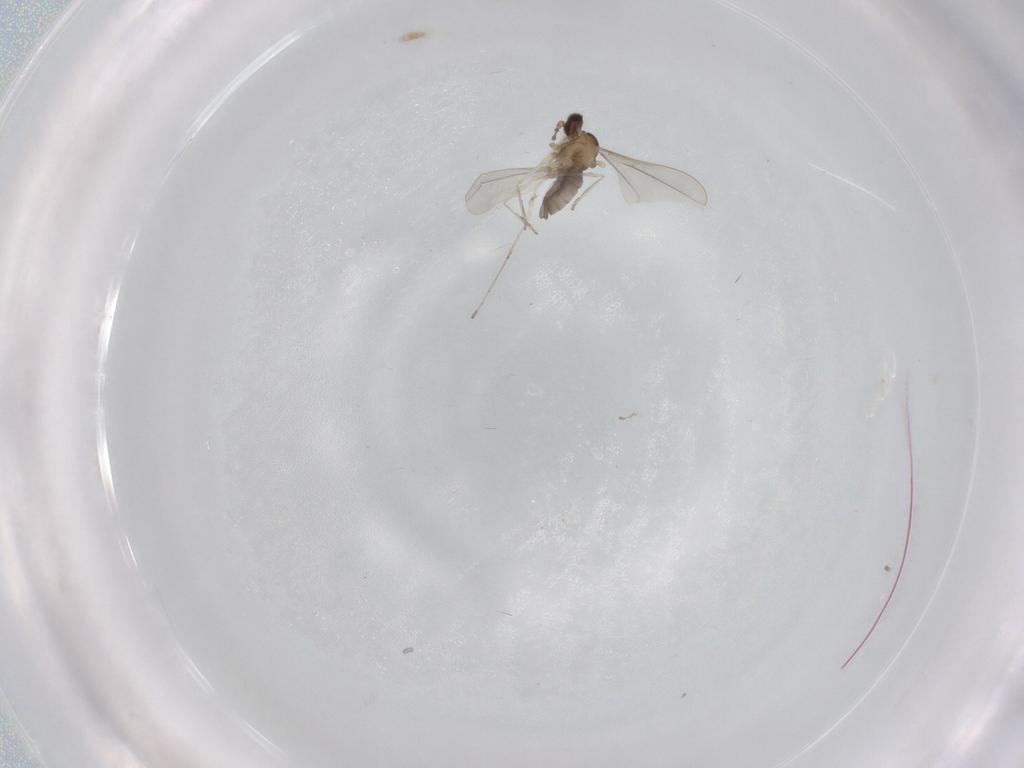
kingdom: Animalia
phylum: Arthropoda
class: Insecta
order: Diptera
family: Cecidomyiidae
